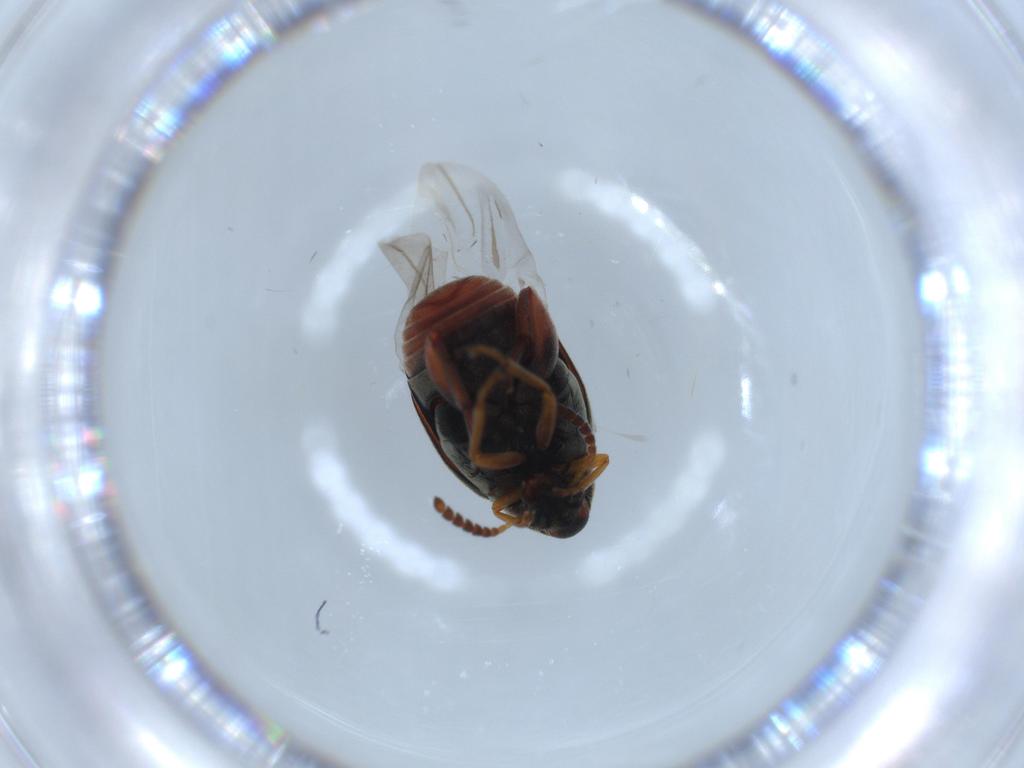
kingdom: Animalia
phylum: Arthropoda
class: Insecta
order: Coleoptera
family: Chrysomelidae
